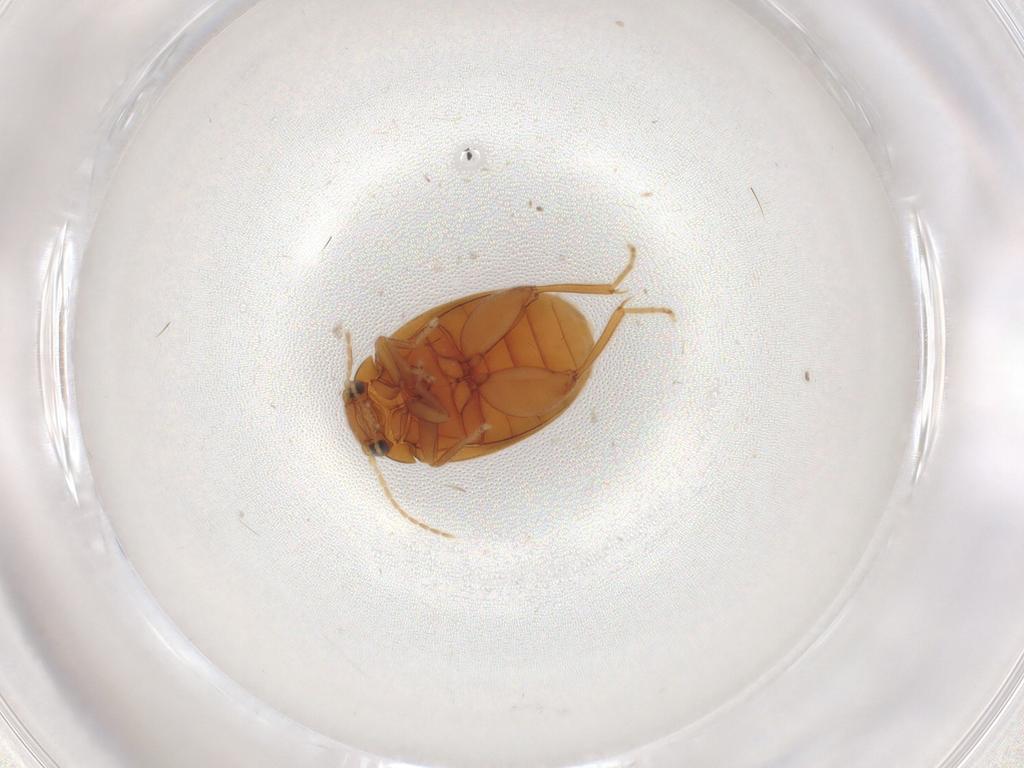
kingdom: Animalia
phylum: Arthropoda
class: Insecta
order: Coleoptera
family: Scirtidae
